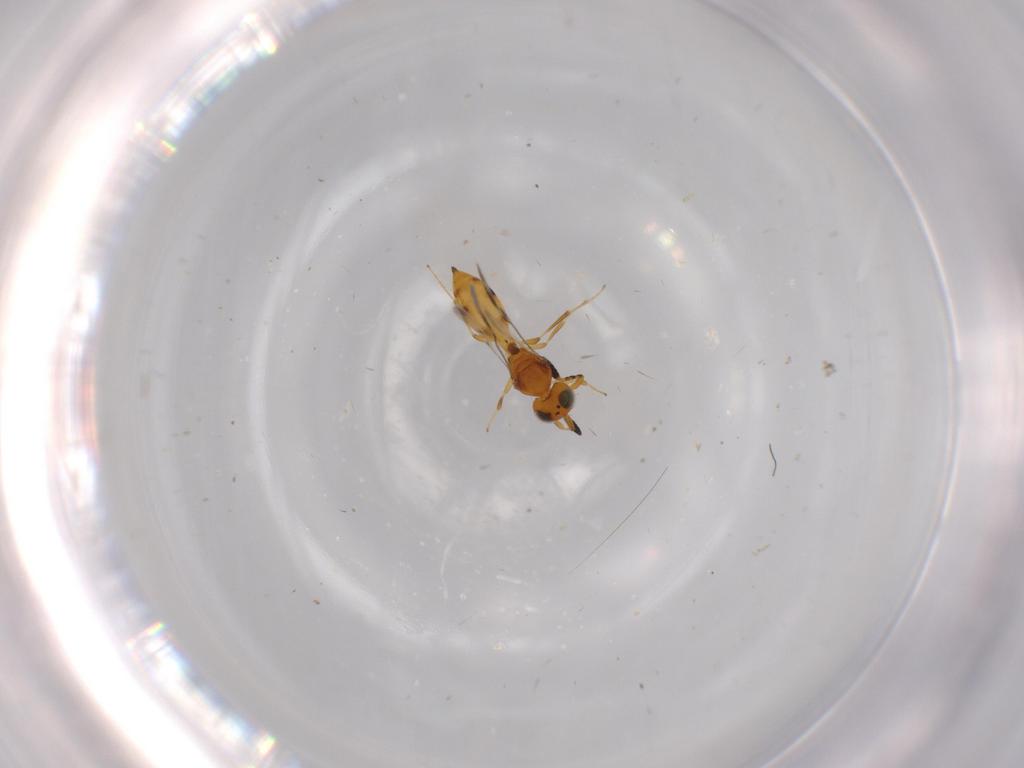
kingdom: Animalia
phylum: Arthropoda
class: Insecta
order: Hymenoptera
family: Scelionidae
